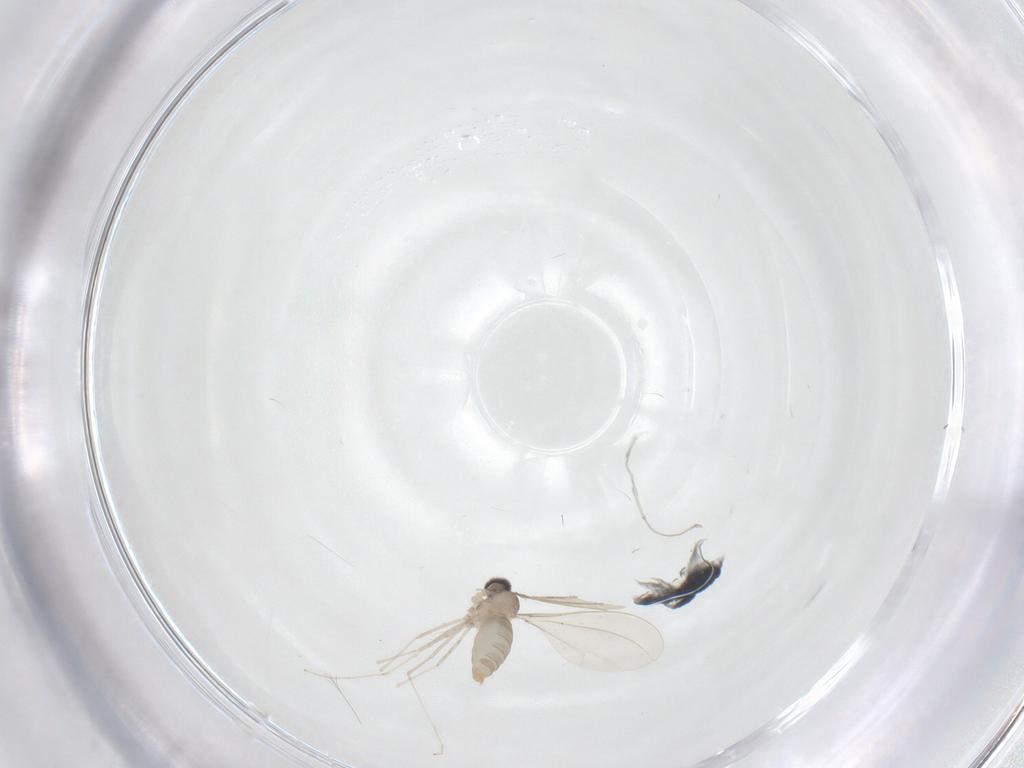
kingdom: Animalia
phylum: Arthropoda
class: Insecta
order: Diptera
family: Cecidomyiidae
